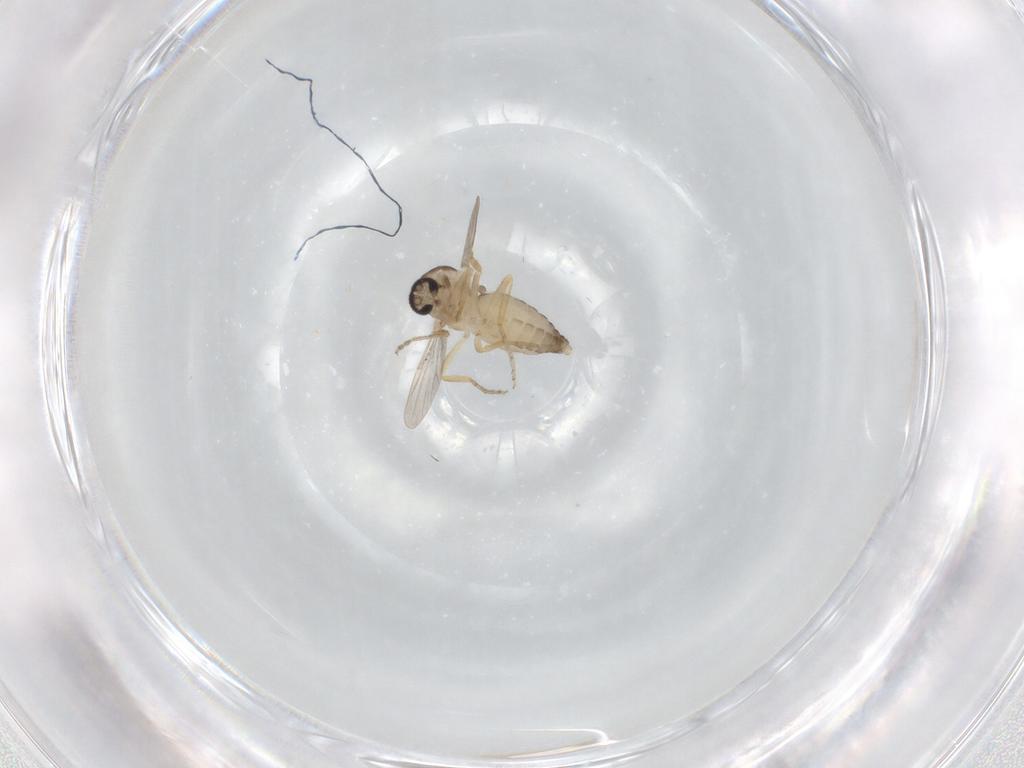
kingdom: Animalia
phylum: Arthropoda
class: Insecta
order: Diptera
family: Ceratopogonidae
